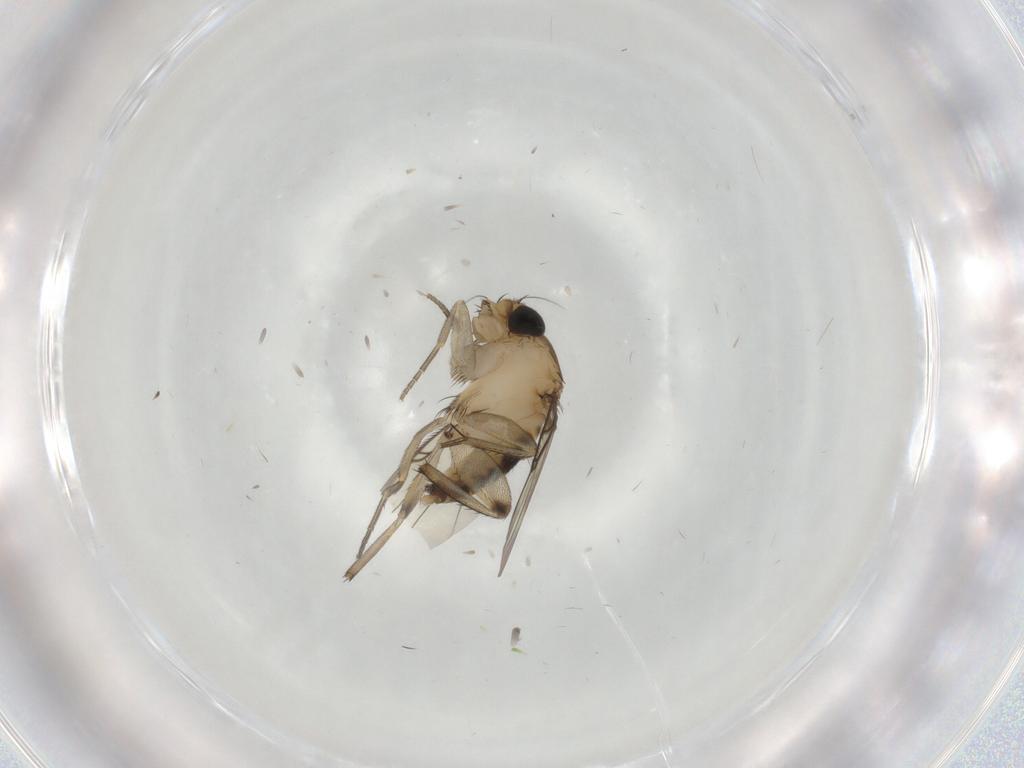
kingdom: Animalia
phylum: Arthropoda
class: Insecta
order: Diptera
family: Phoridae
